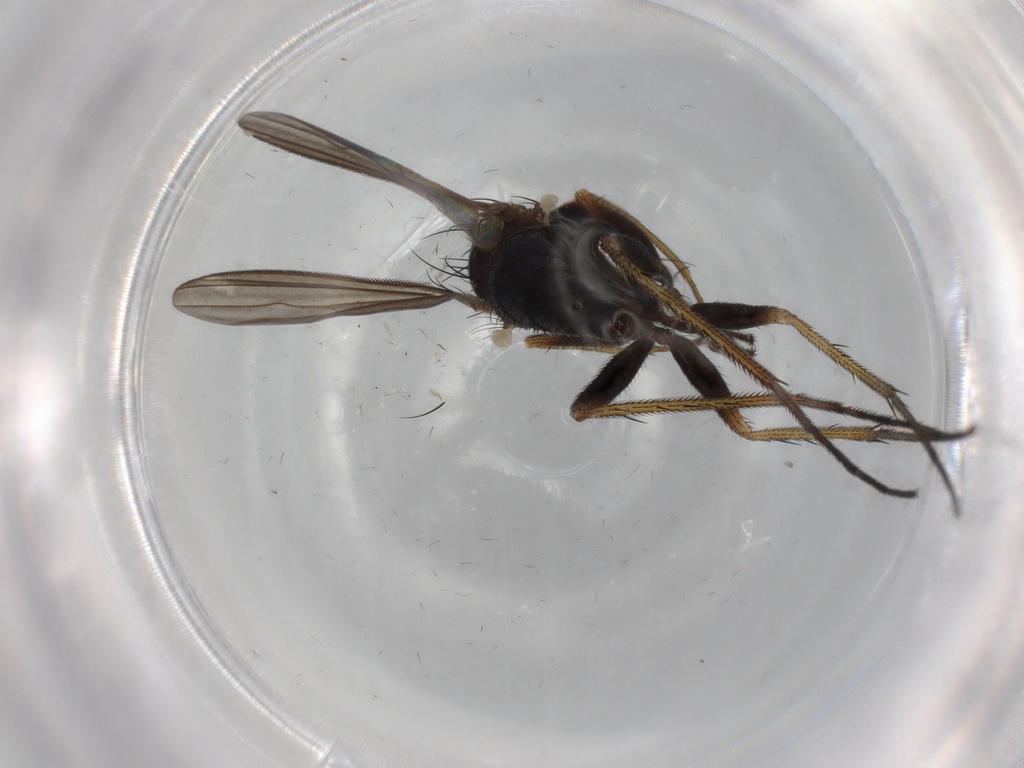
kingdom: Animalia
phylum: Arthropoda
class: Insecta
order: Diptera
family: Dolichopodidae
